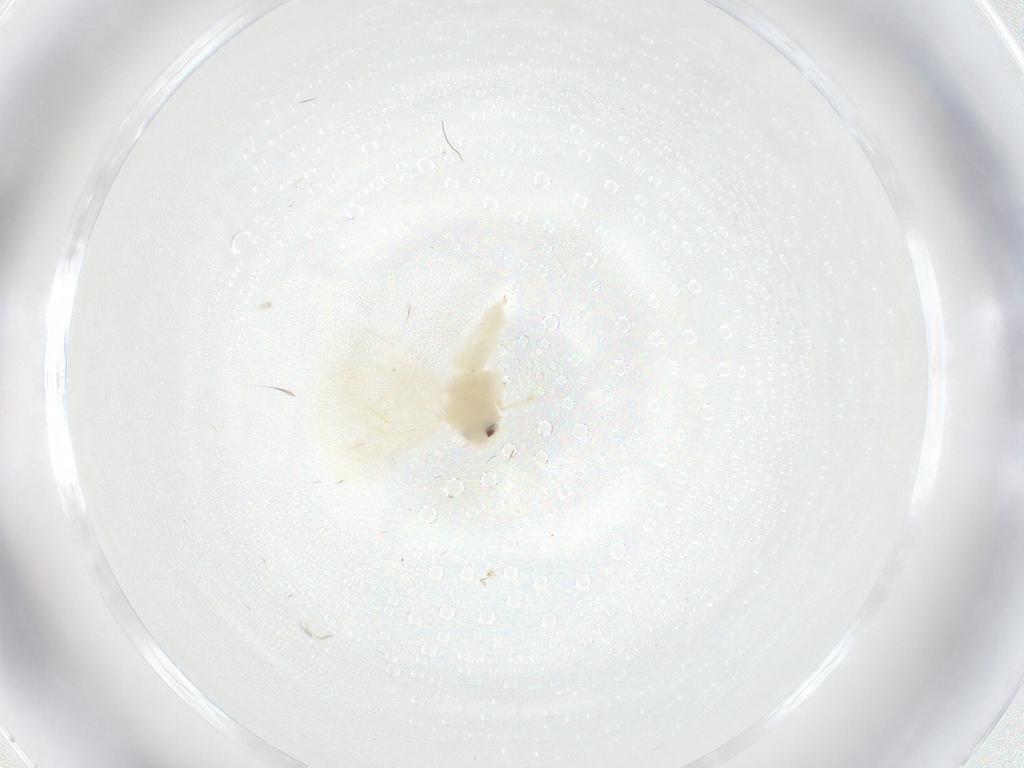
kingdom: Animalia
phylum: Arthropoda
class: Insecta
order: Hemiptera
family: Aleyrodidae
